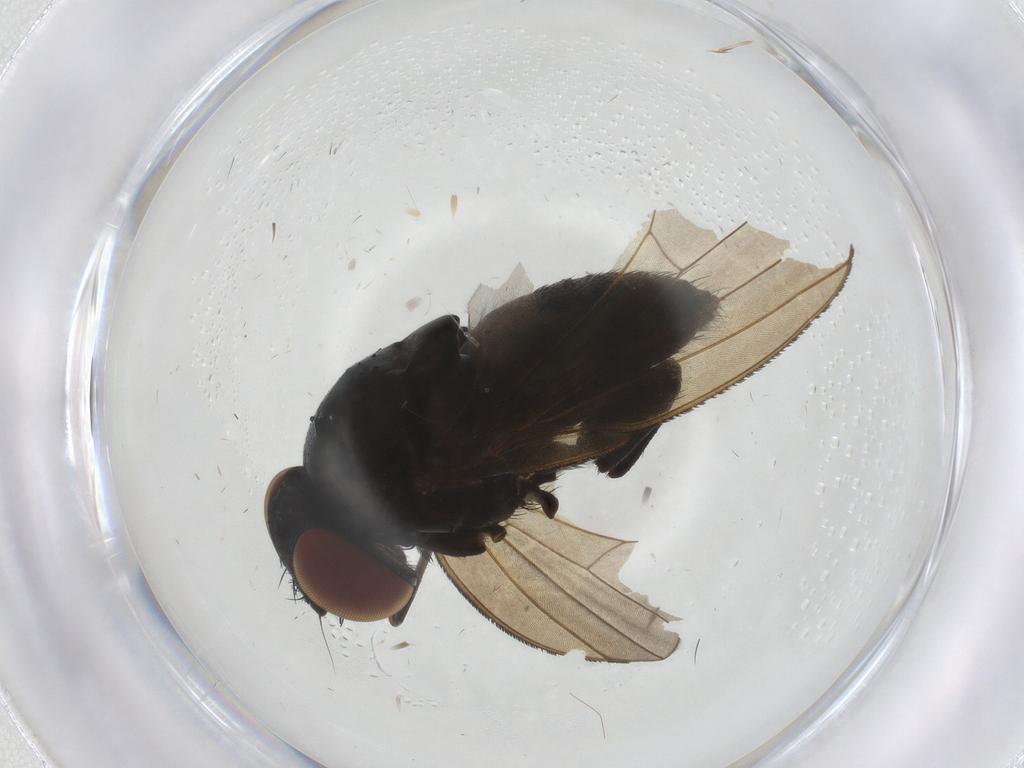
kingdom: Animalia
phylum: Arthropoda
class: Insecta
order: Diptera
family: Milichiidae
